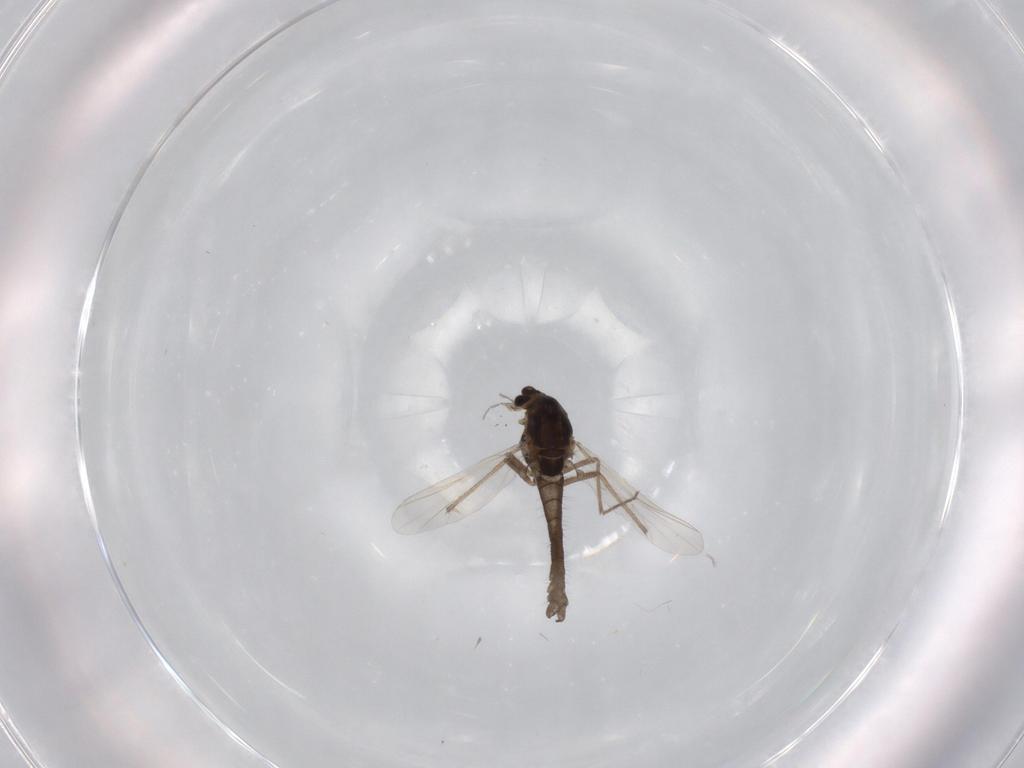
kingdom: Animalia
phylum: Arthropoda
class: Insecta
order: Diptera
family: Chironomidae
